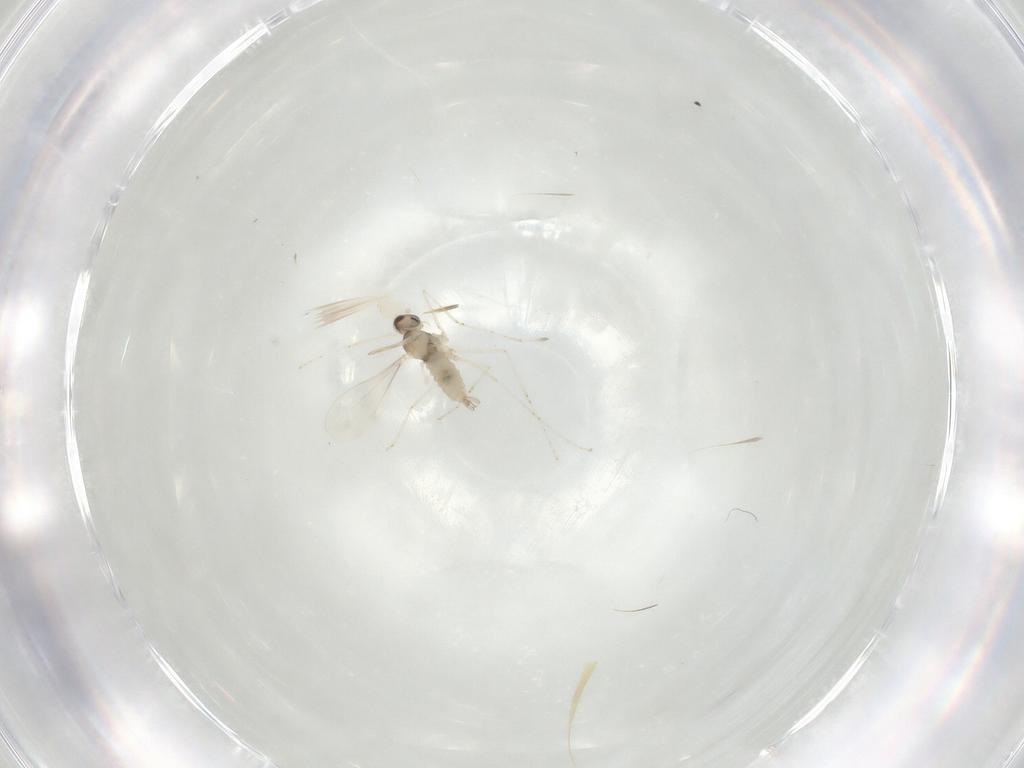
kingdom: Animalia
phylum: Arthropoda
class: Insecta
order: Diptera
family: Cecidomyiidae
